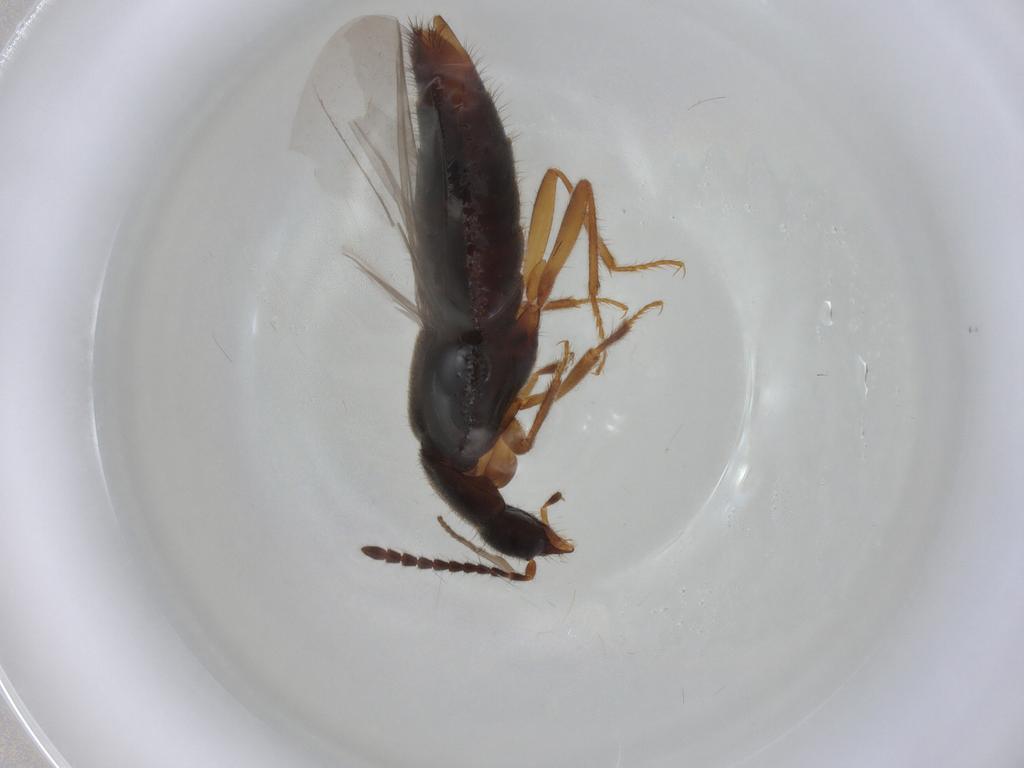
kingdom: Animalia
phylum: Arthropoda
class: Insecta
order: Coleoptera
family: Staphylinidae
